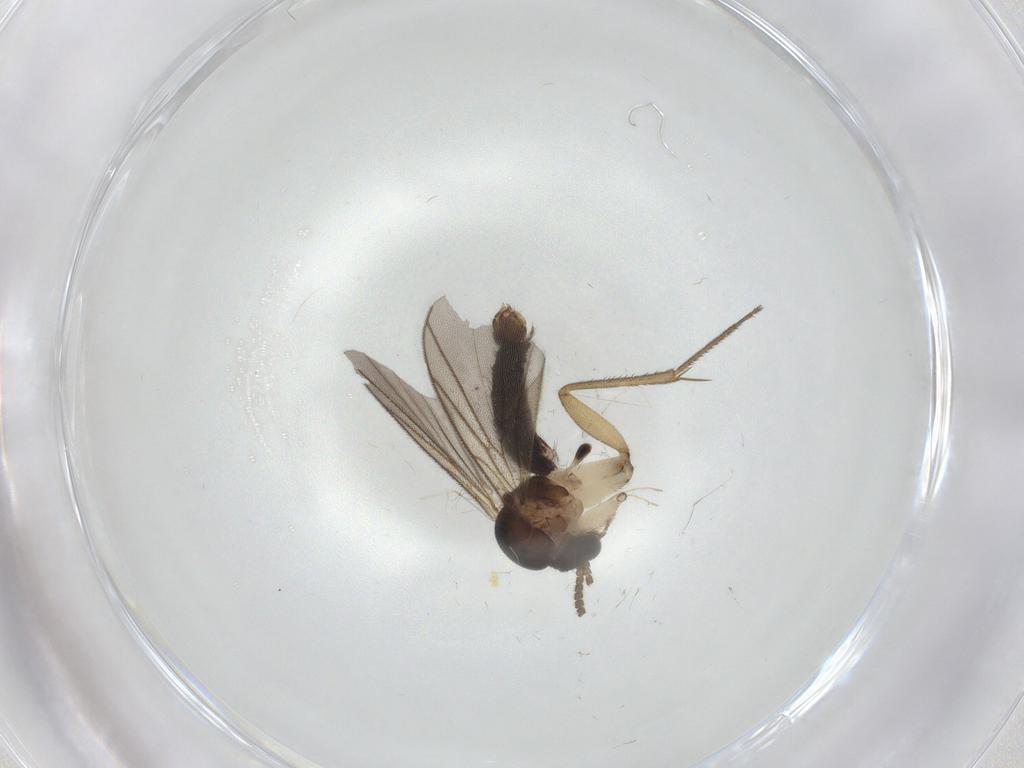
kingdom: Animalia
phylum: Arthropoda
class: Insecta
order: Diptera
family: Mycetophilidae
